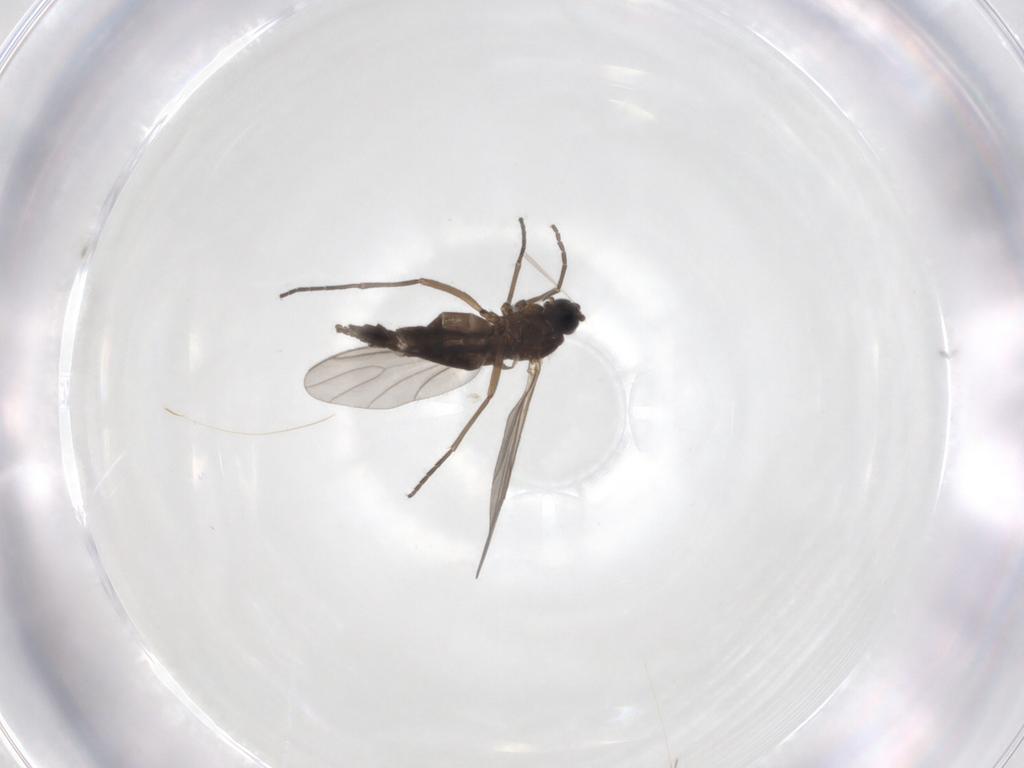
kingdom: Animalia
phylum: Arthropoda
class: Insecta
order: Diptera
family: Sciaridae
